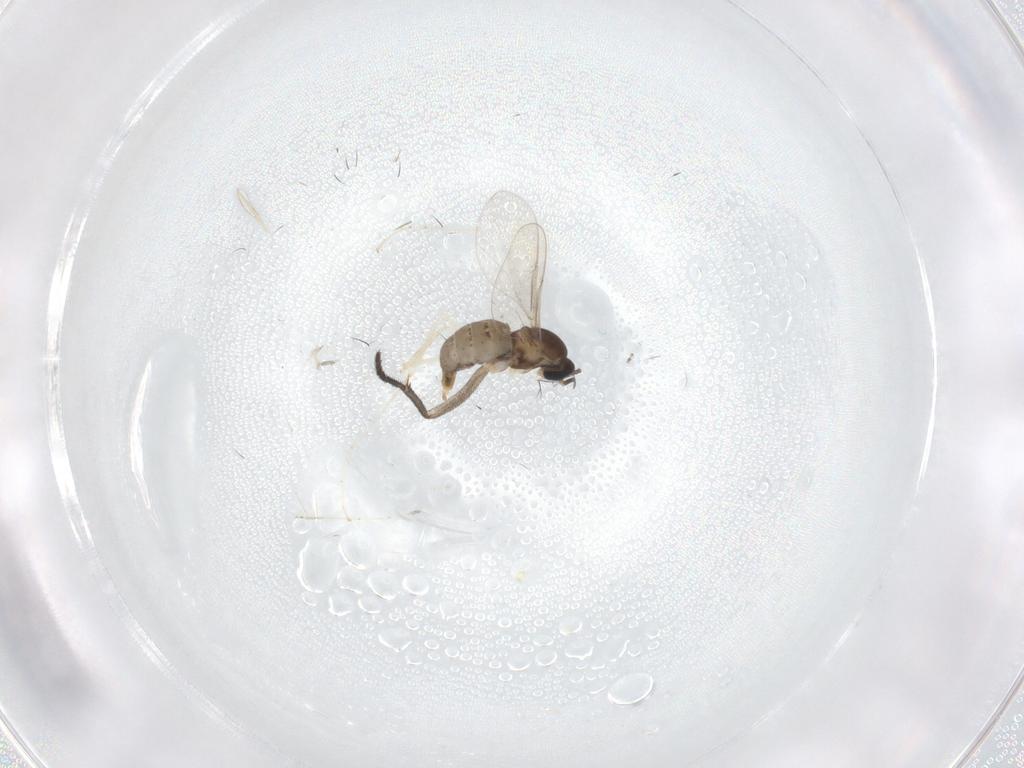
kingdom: Animalia
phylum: Arthropoda
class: Insecta
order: Diptera
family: Cecidomyiidae
